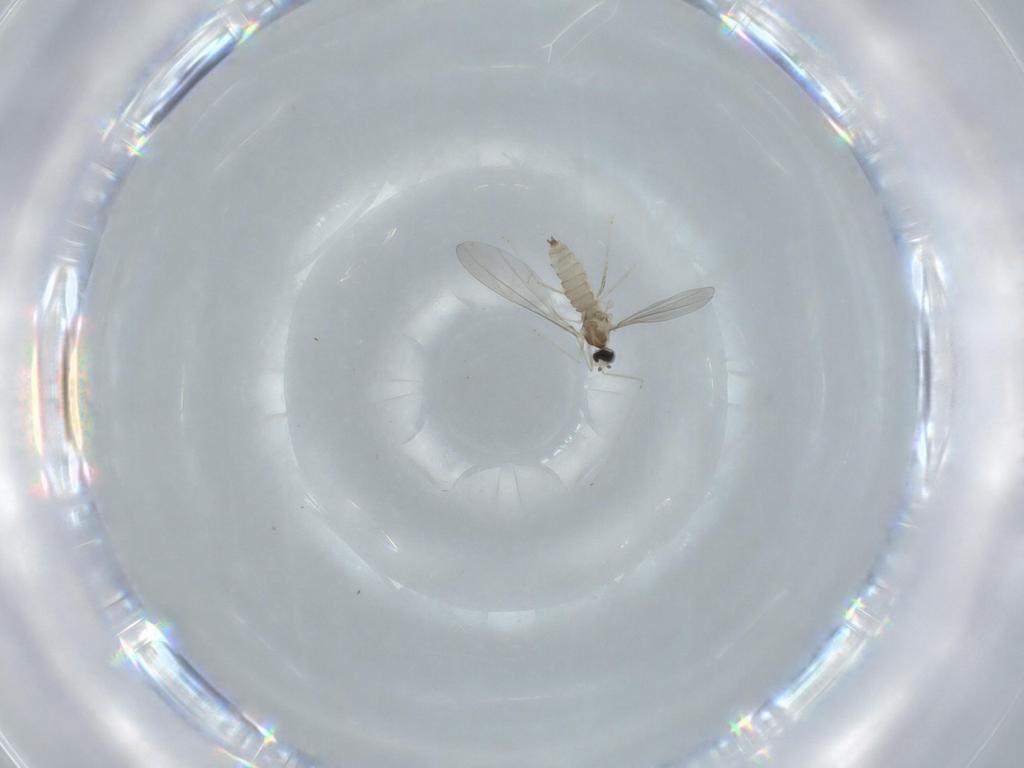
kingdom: Animalia
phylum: Arthropoda
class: Insecta
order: Diptera
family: Cecidomyiidae
